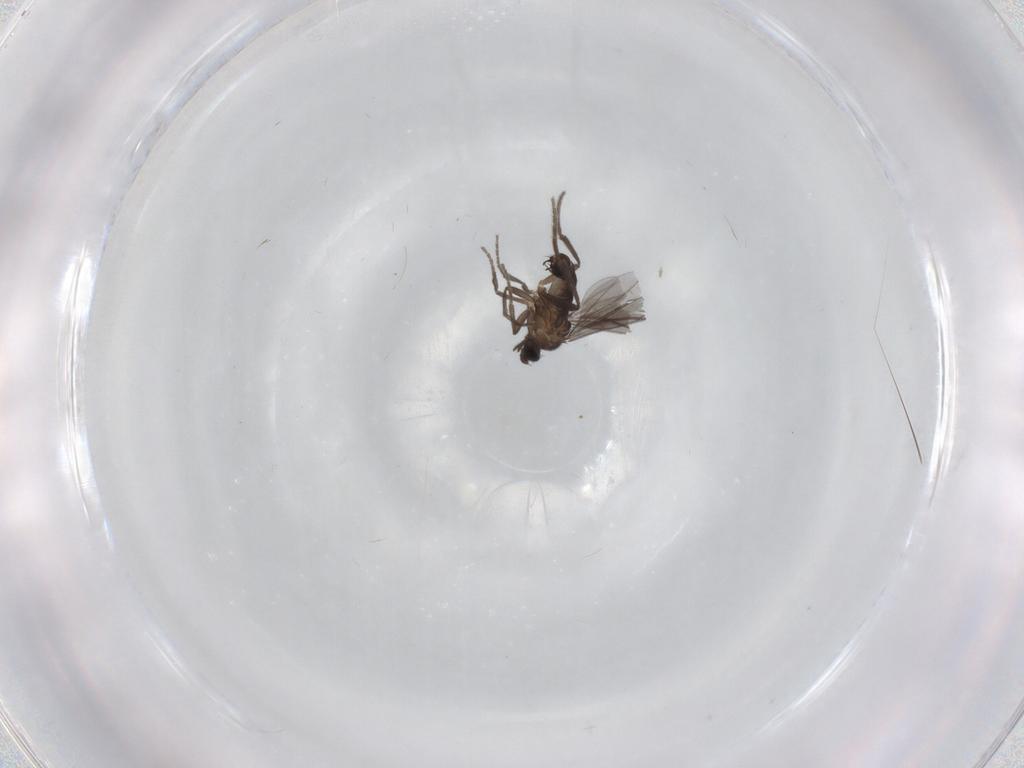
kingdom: Animalia
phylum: Arthropoda
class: Insecta
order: Diptera
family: Phoridae
